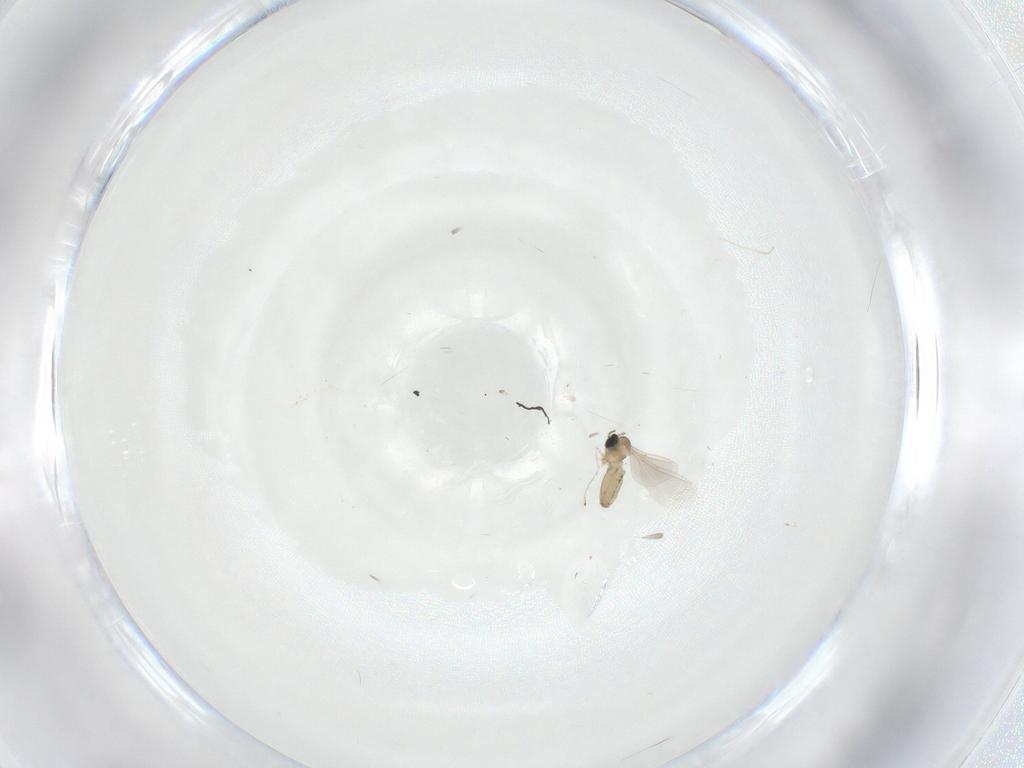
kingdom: Animalia
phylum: Arthropoda
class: Insecta
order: Diptera
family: Cecidomyiidae
